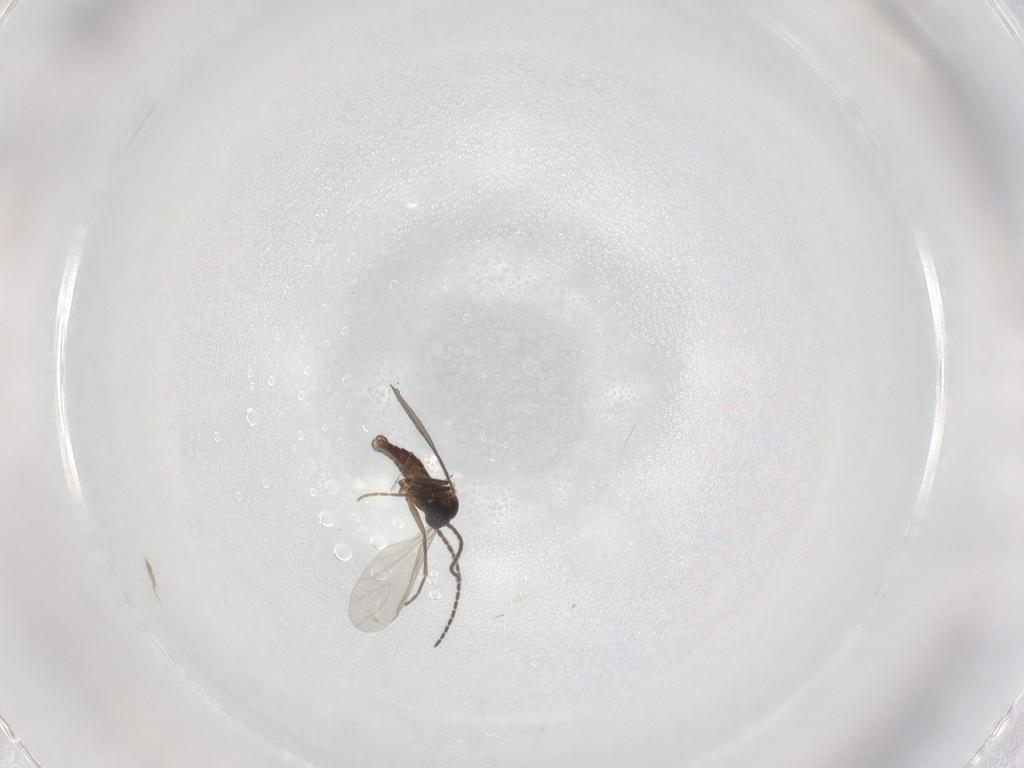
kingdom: Animalia
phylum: Arthropoda
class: Insecta
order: Diptera
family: Sciaridae
